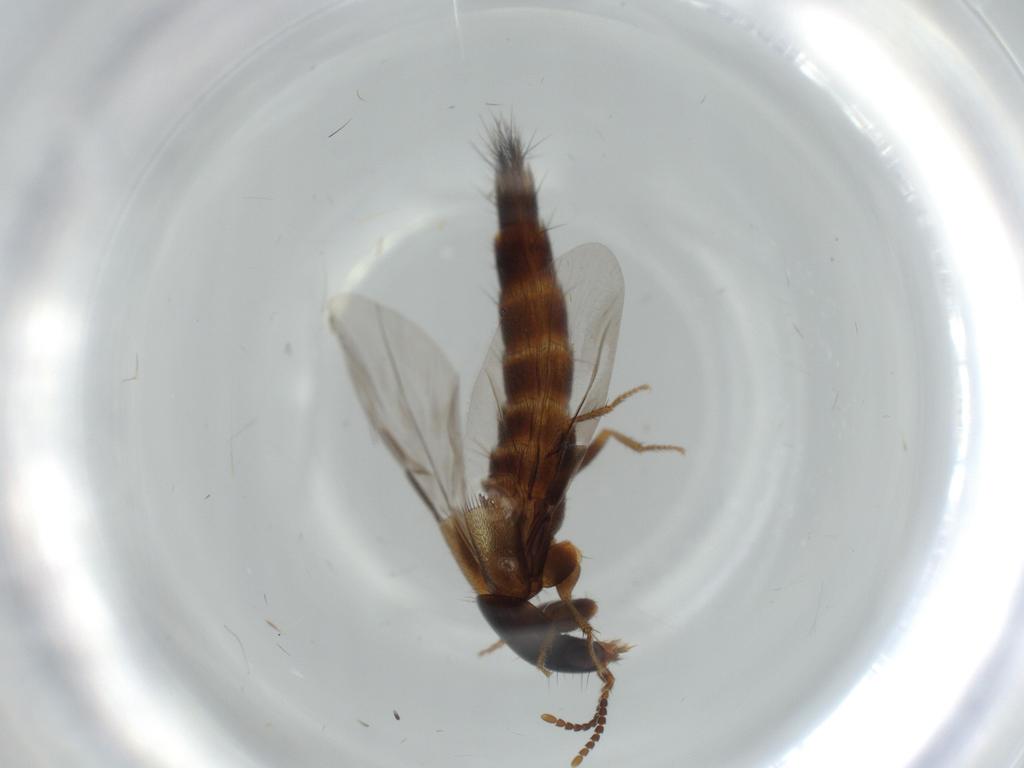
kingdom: Animalia
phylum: Arthropoda
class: Insecta
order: Coleoptera
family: Staphylinidae
